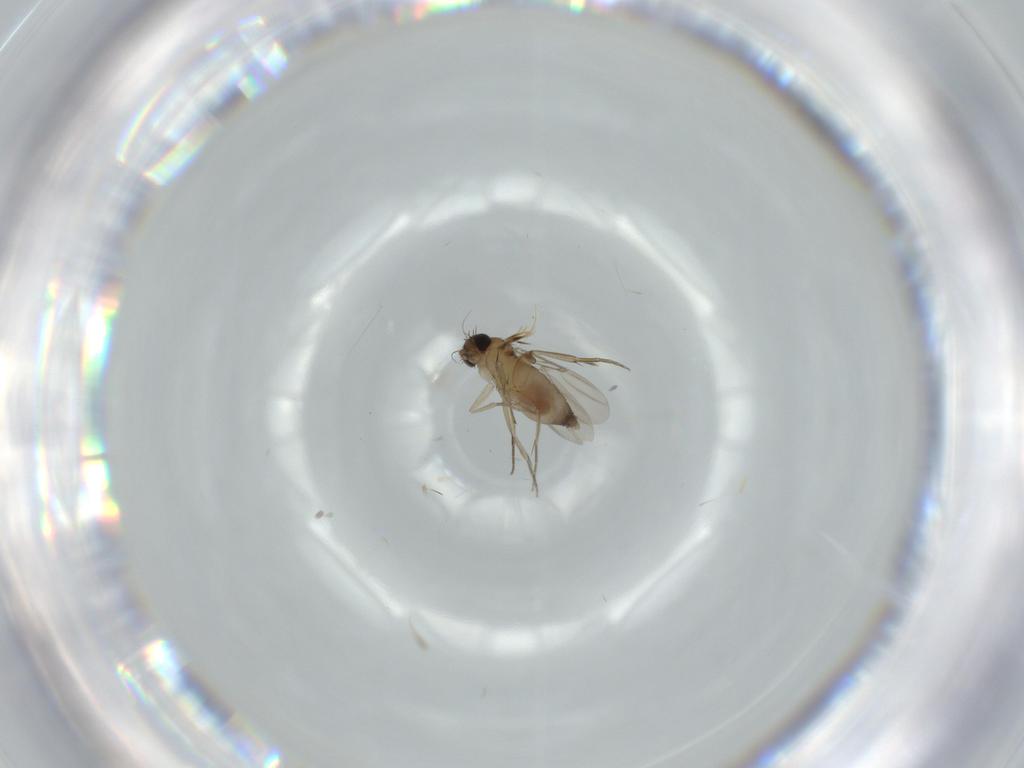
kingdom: Animalia
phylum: Arthropoda
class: Insecta
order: Diptera
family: Phoridae
